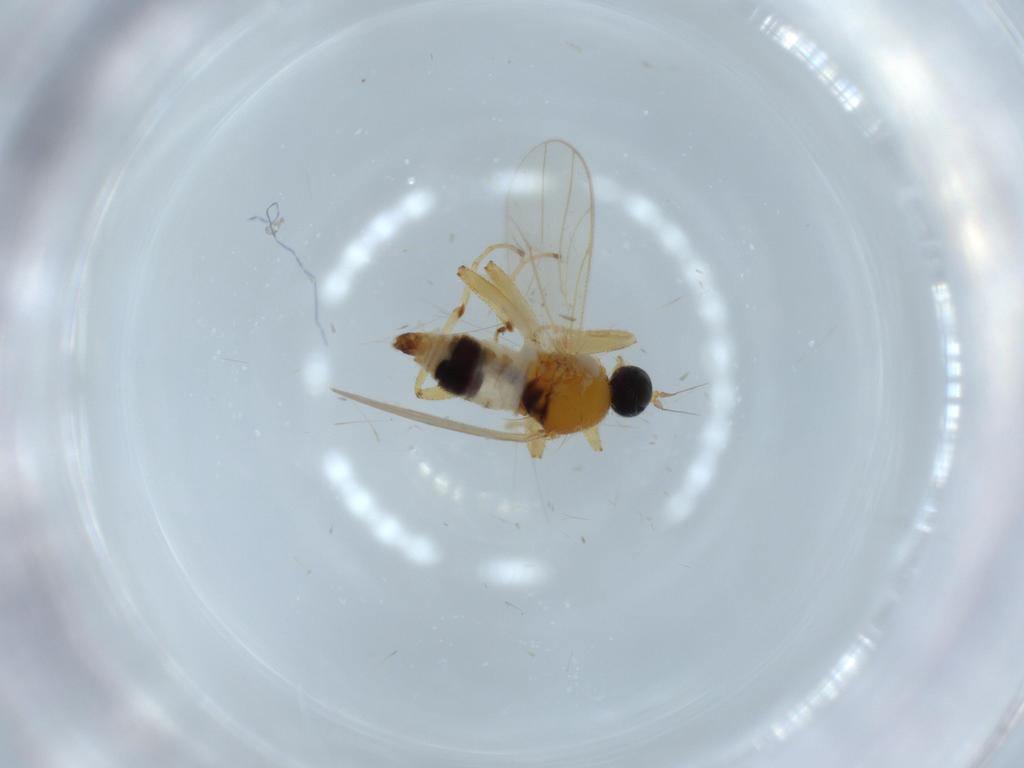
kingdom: Animalia
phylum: Arthropoda
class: Insecta
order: Diptera
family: Hybotidae
